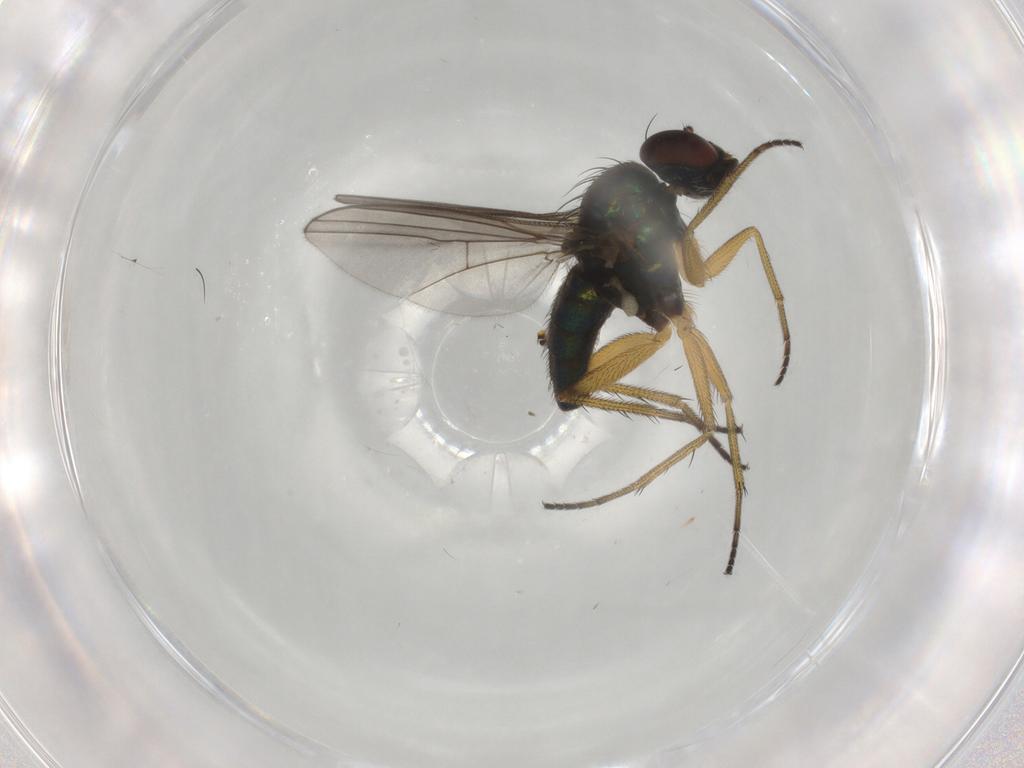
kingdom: Animalia
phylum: Arthropoda
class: Insecta
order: Diptera
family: Dolichopodidae
